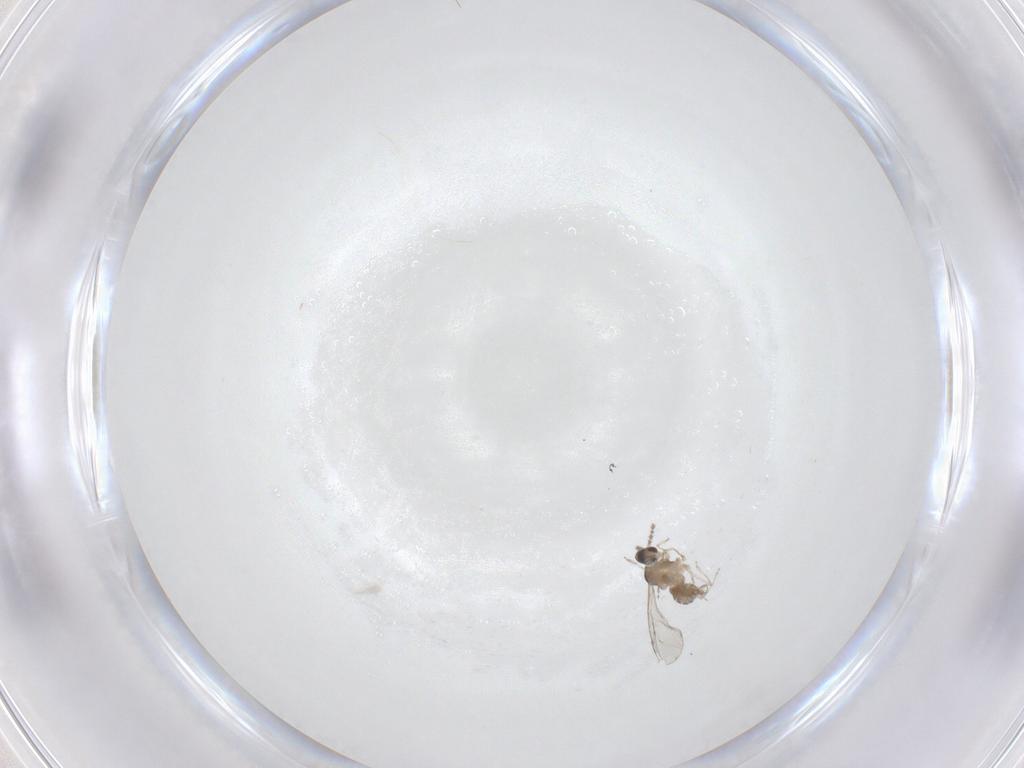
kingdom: Animalia
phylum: Arthropoda
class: Insecta
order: Diptera
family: Cecidomyiidae
